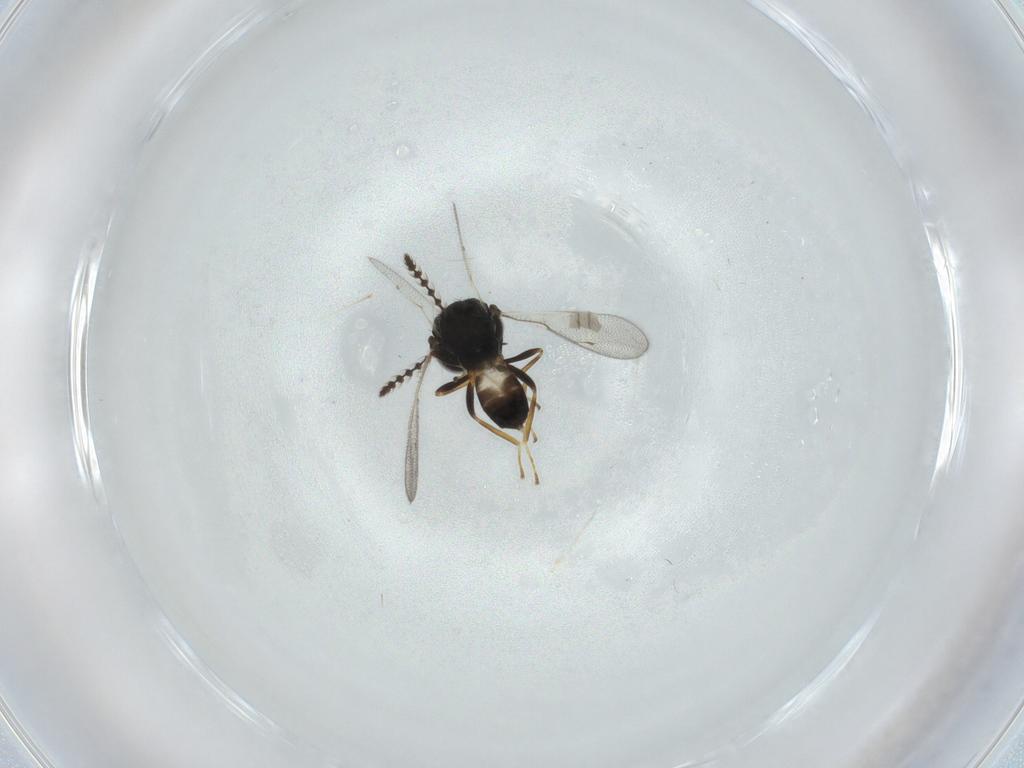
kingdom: Animalia
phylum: Arthropoda
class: Insecta
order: Hymenoptera
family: Pteromalidae
